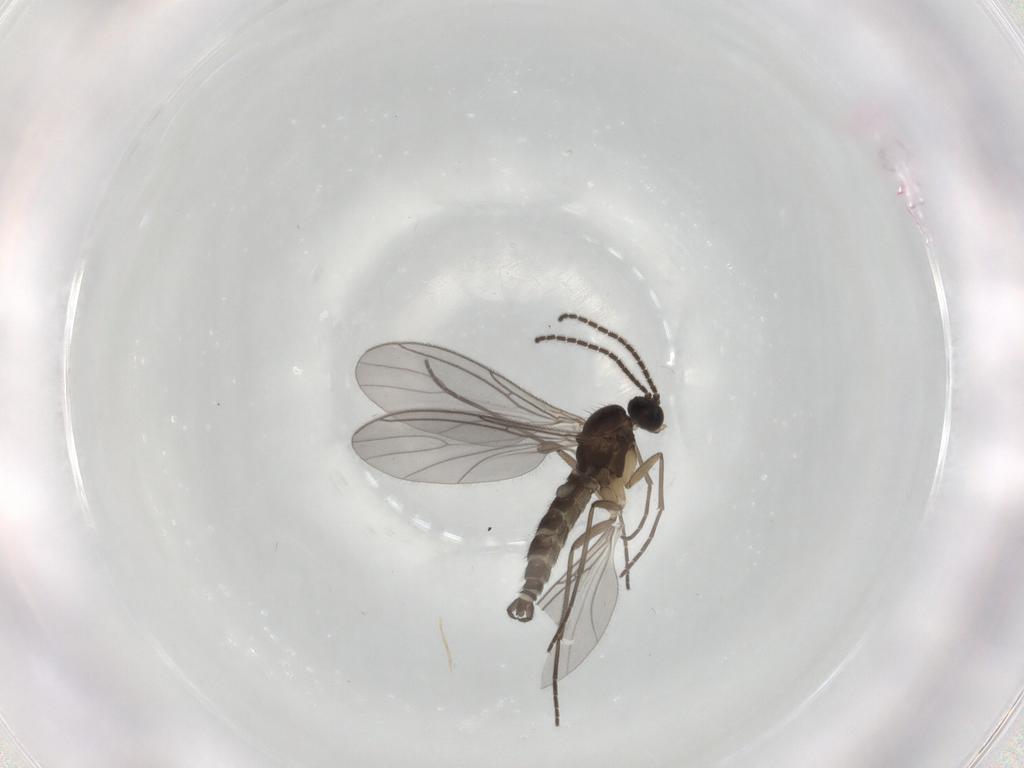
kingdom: Animalia
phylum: Arthropoda
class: Insecta
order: Diptera
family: Sciaridae
